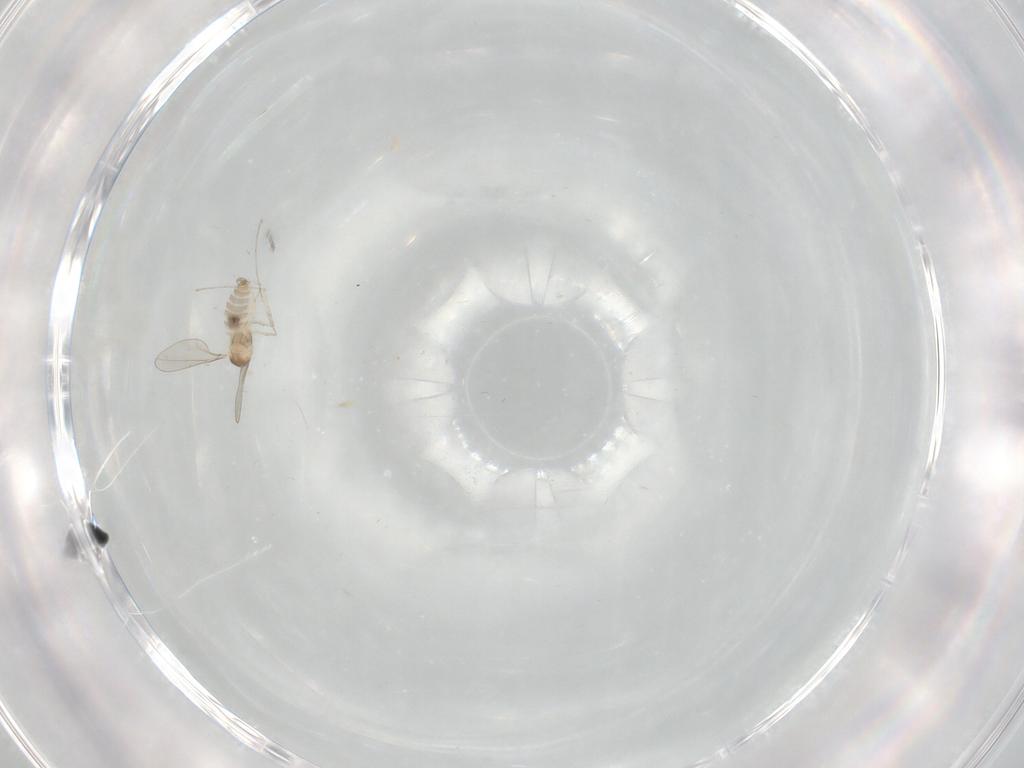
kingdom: Animalia
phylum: Arthropoda
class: Insecta
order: Diptera
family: Cecidomyiidae
